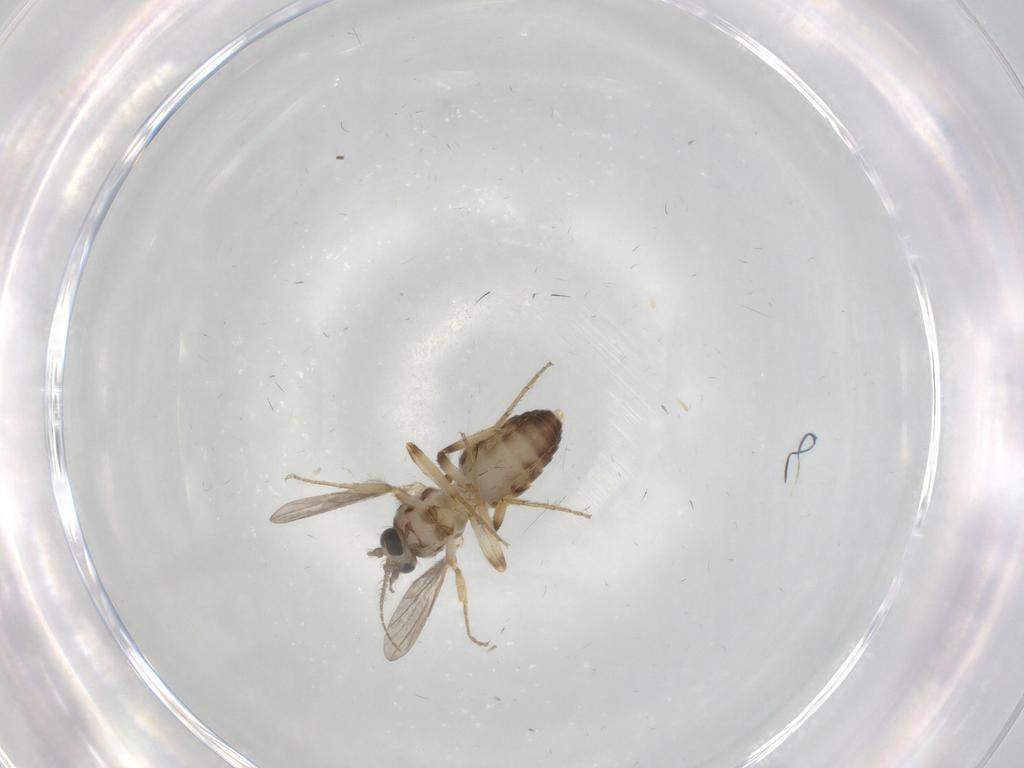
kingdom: Animalia
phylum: Arthropoda
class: Insecta
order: Diptera
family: Ceratopogonidae
